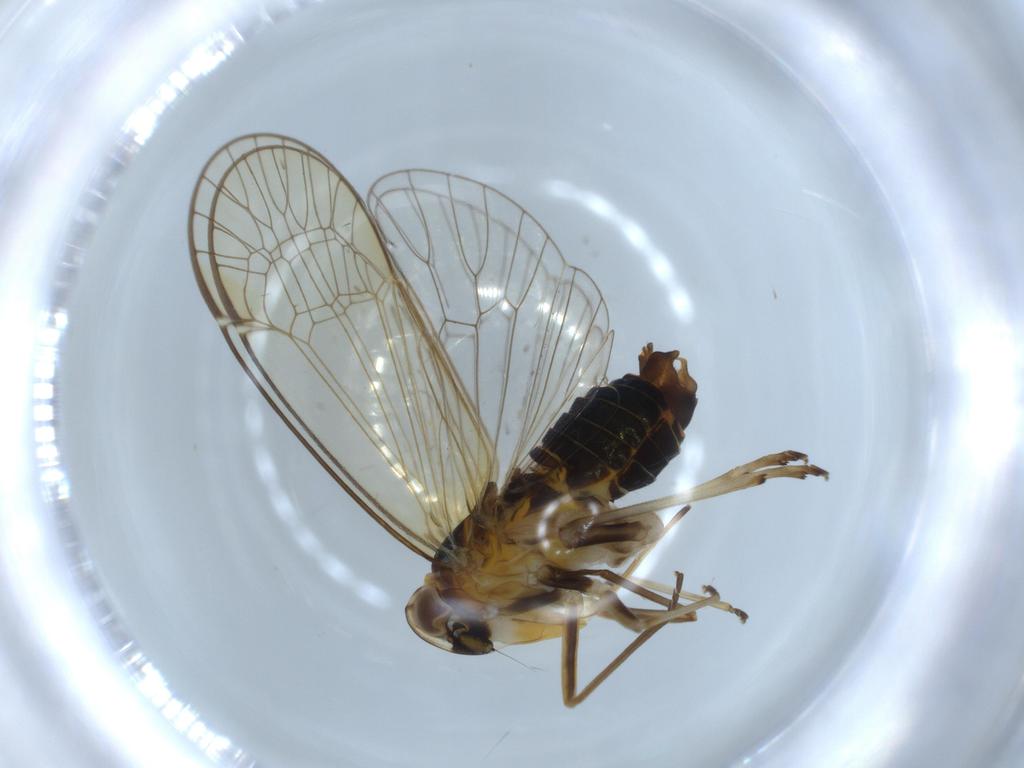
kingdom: Animalia
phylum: Arthropoda
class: Insecta
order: Hemiptera
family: Kinnaridae
